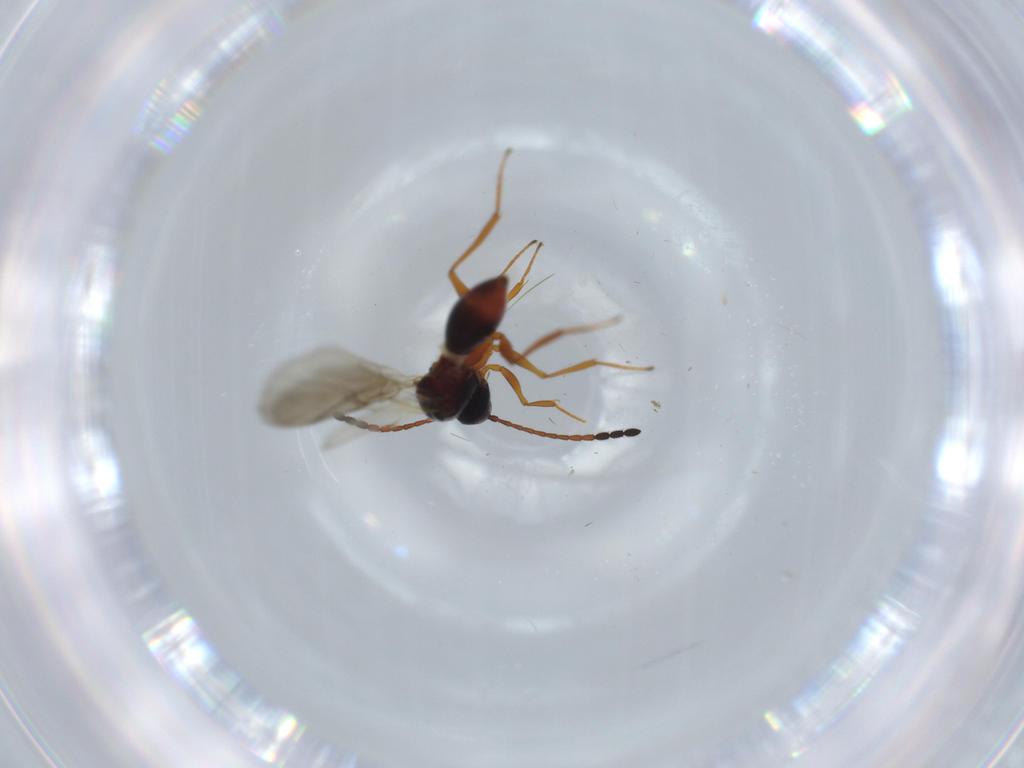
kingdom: Animalia
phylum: Arthropoda
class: Insecta
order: Hymenoptera
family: Figitidae
